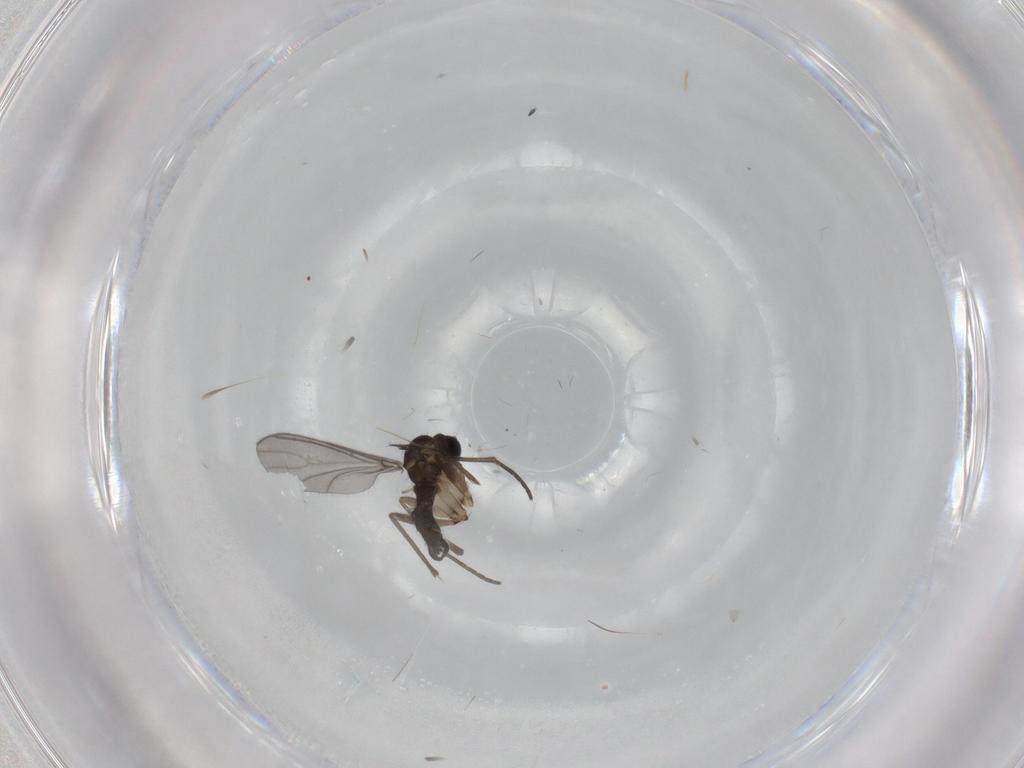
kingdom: Animalia
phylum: Arthropoda
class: Insecta
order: Diptera
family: Sciaridae
